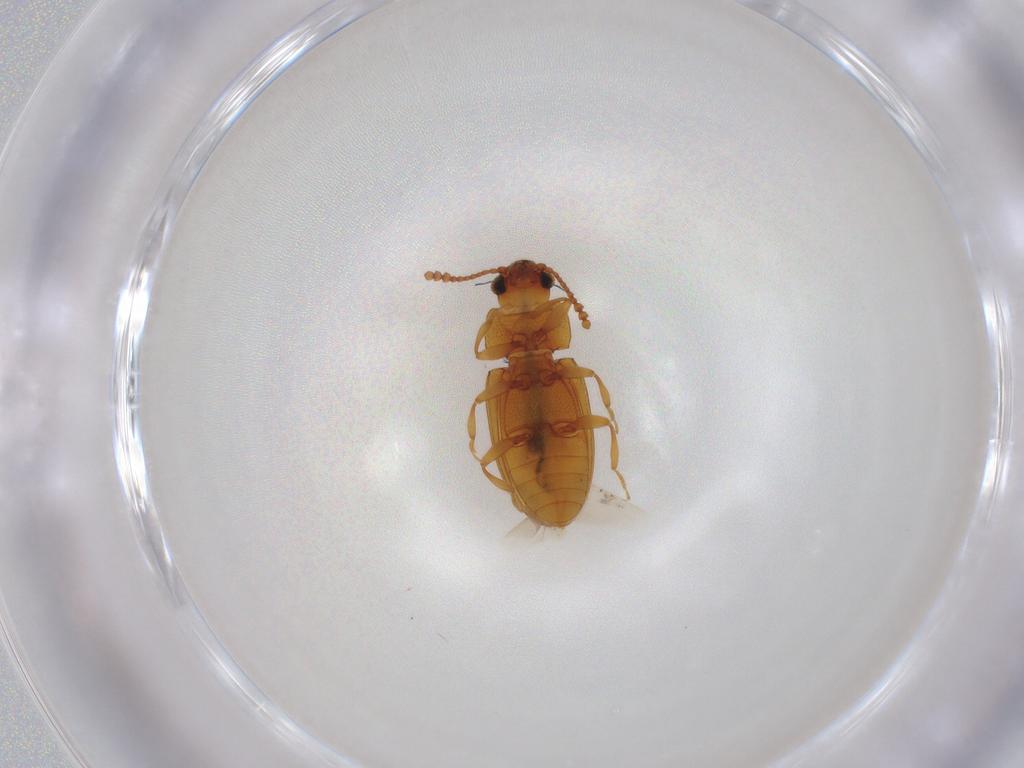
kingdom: Animalia
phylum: Arthropoda
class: Insecta
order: Coleoptera
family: Erotylidae
